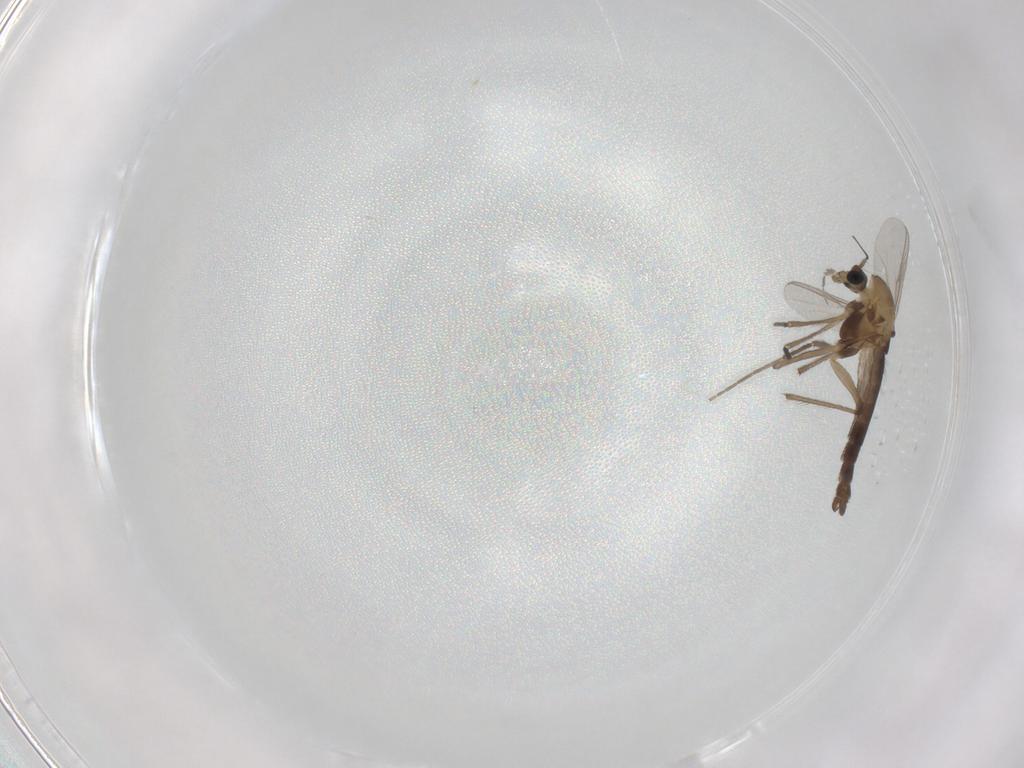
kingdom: Animalia
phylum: Arthropoda
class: Insecta
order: Diptera
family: Chironomidae
